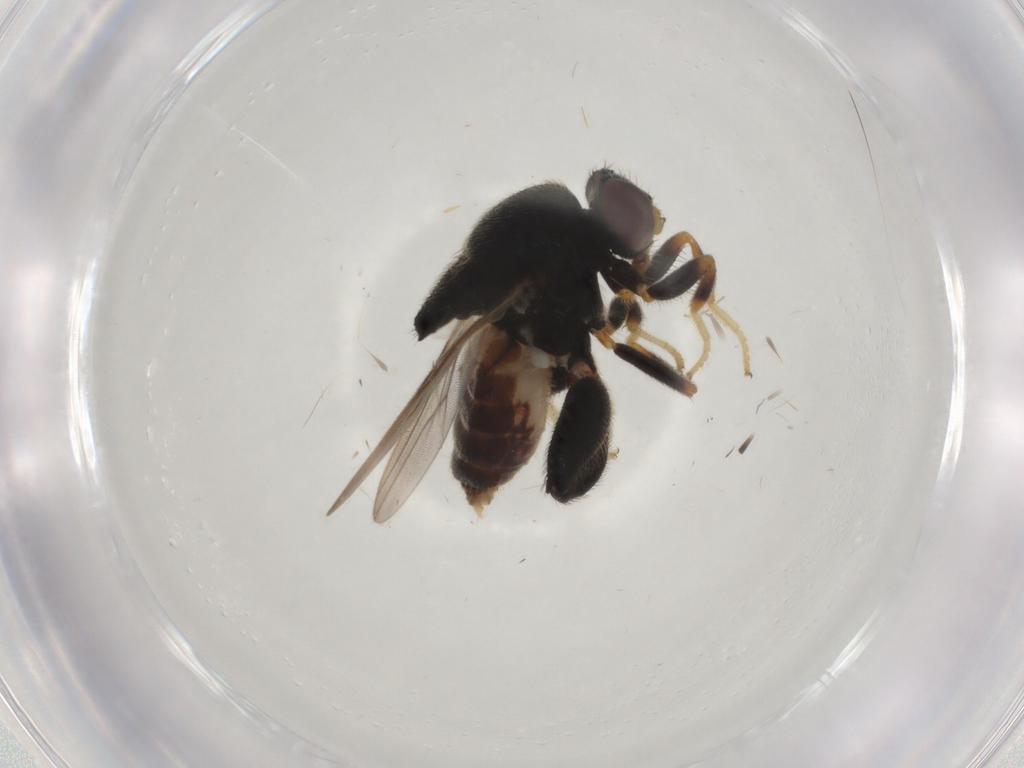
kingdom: Animalia
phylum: Arthropoda
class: Insecta
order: Diptera
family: Chloropidae
